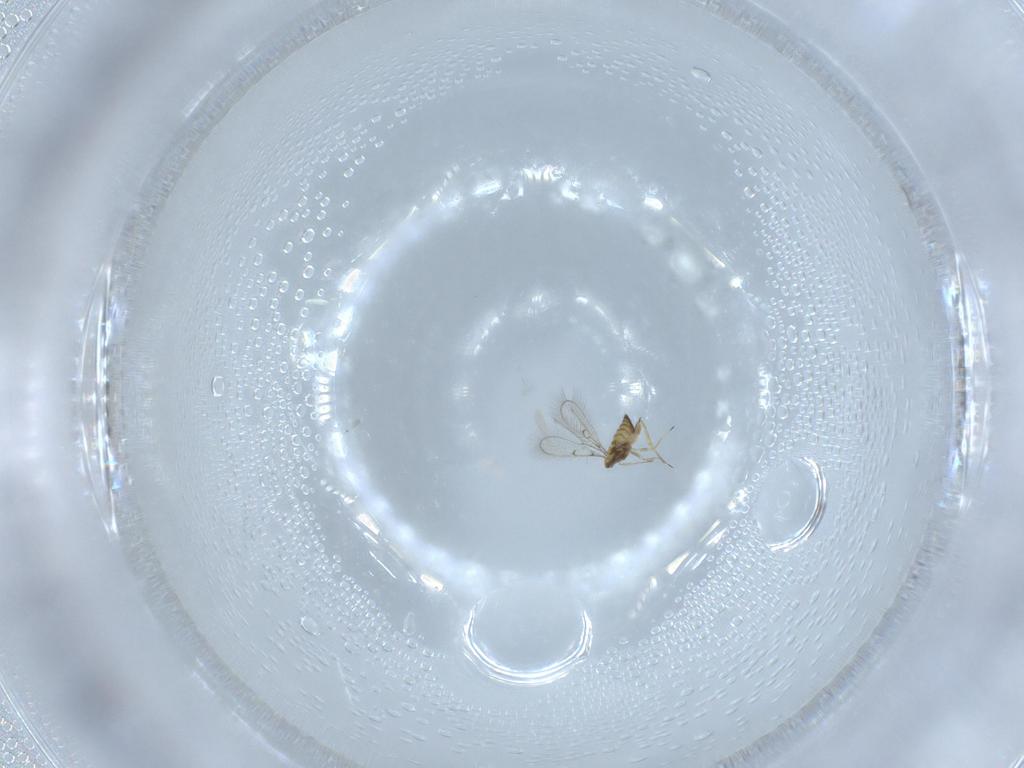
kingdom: Animalia
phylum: Arthropoda
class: Insecta
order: Hymenoptera
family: Trichogrammatidae
